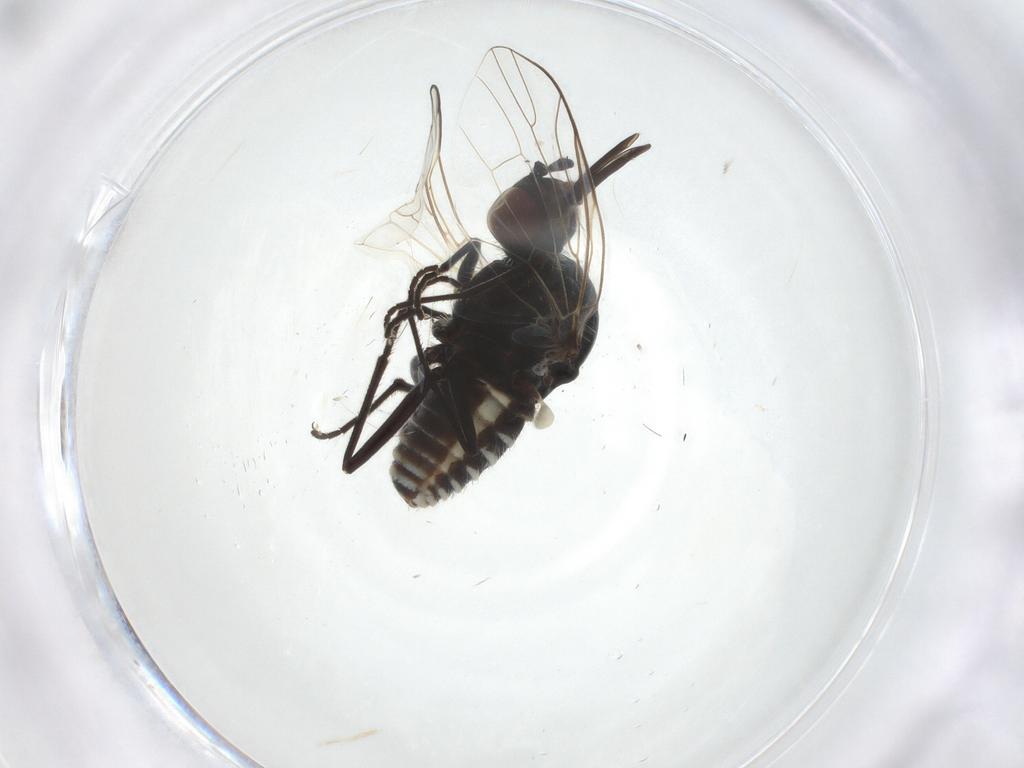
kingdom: Animalia
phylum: Arthropoda
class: Insecta
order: Diptera
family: Bombyliidae
